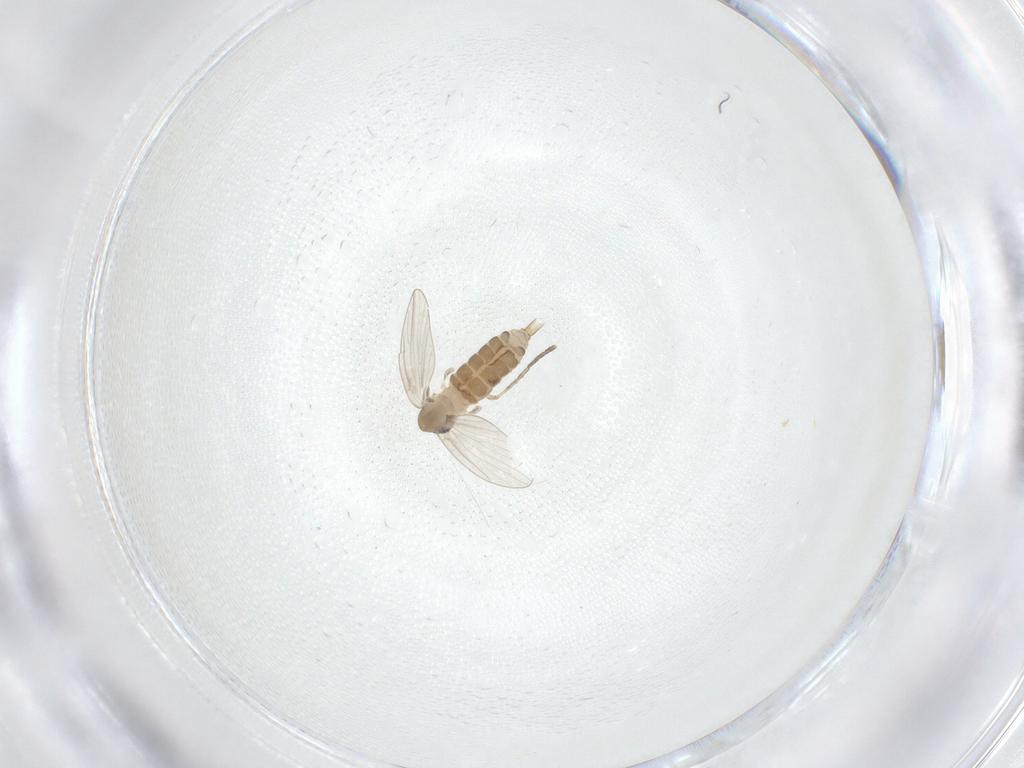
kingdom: Animalia
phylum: Arthropoda
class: Insecta
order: Diptera
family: Psychodidae
